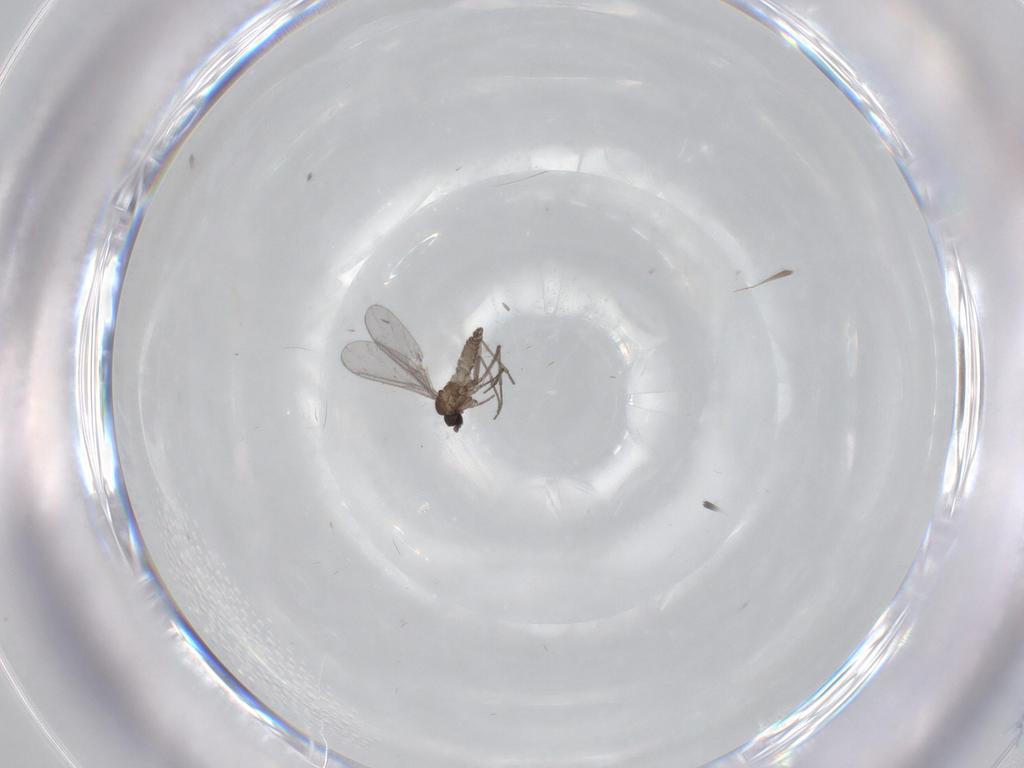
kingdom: Animalia
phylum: Arthropoda
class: Insecta
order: Diptera
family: Sciaridae
